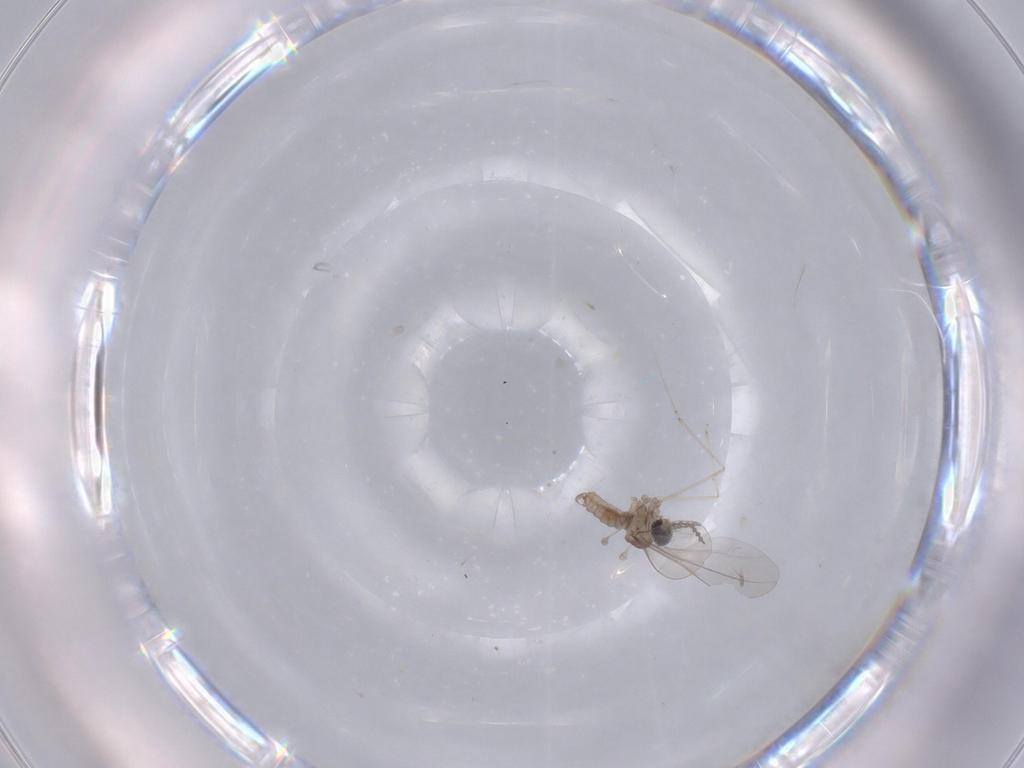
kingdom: Animalia
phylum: Arthropoda
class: Insecta
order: Diptera
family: Cecidomyiidae
